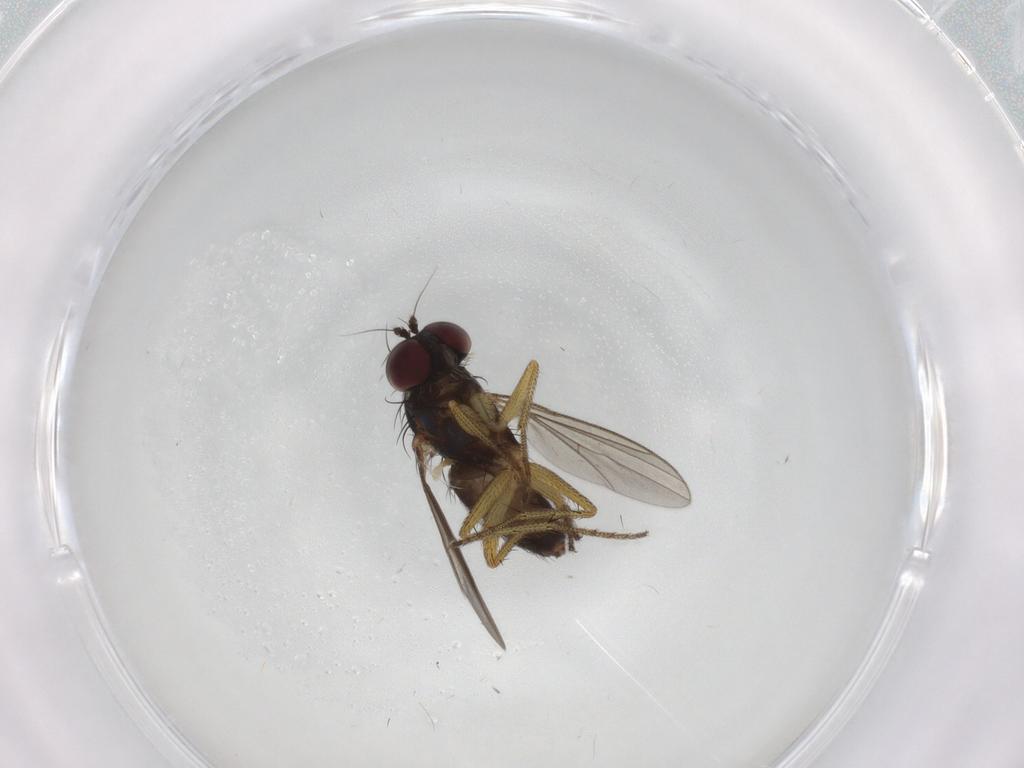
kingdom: Animalia
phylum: Arthropoda
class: Insecta
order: Diptera
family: Dolichopodidae
